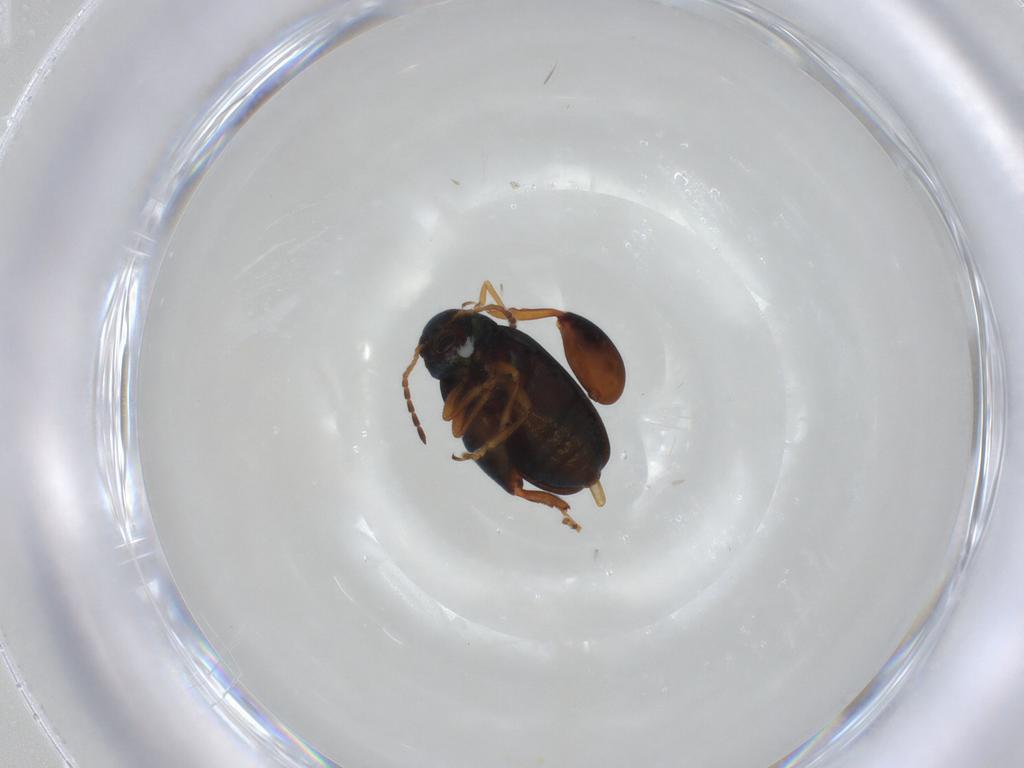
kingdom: Animalia
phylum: Arthropoda
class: Insecta
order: Coleoptera
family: Chrysomelidae
